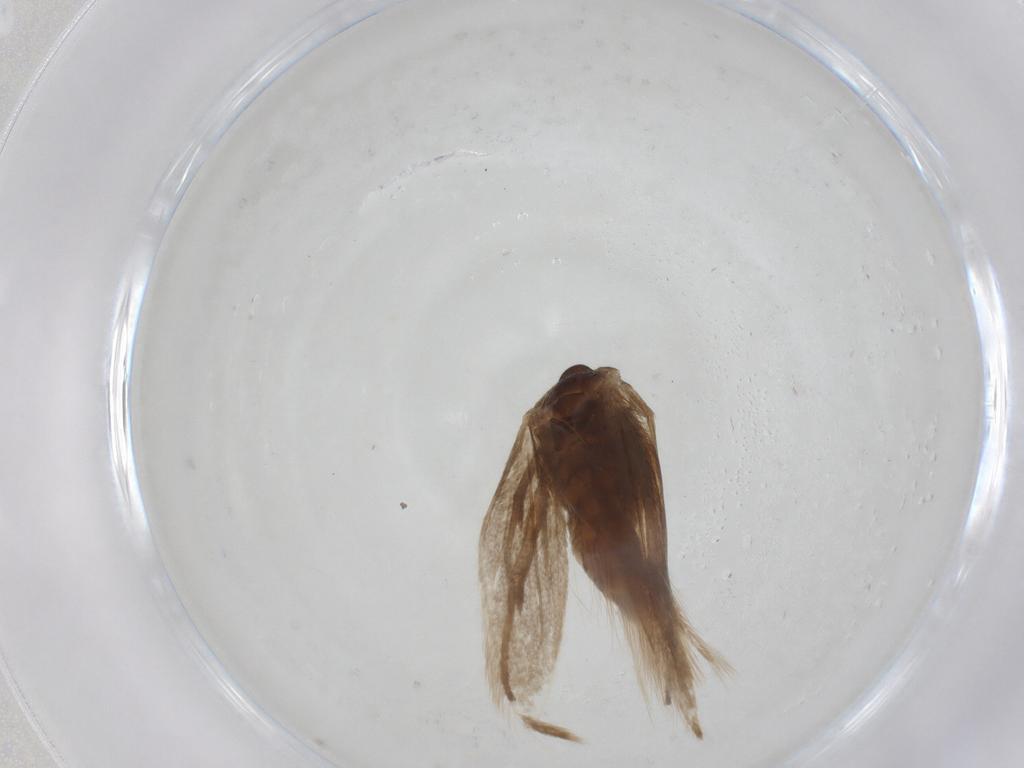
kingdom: Animalia
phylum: Arthropoda
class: Insecta
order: Lepidoptera
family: Gelechiidae
